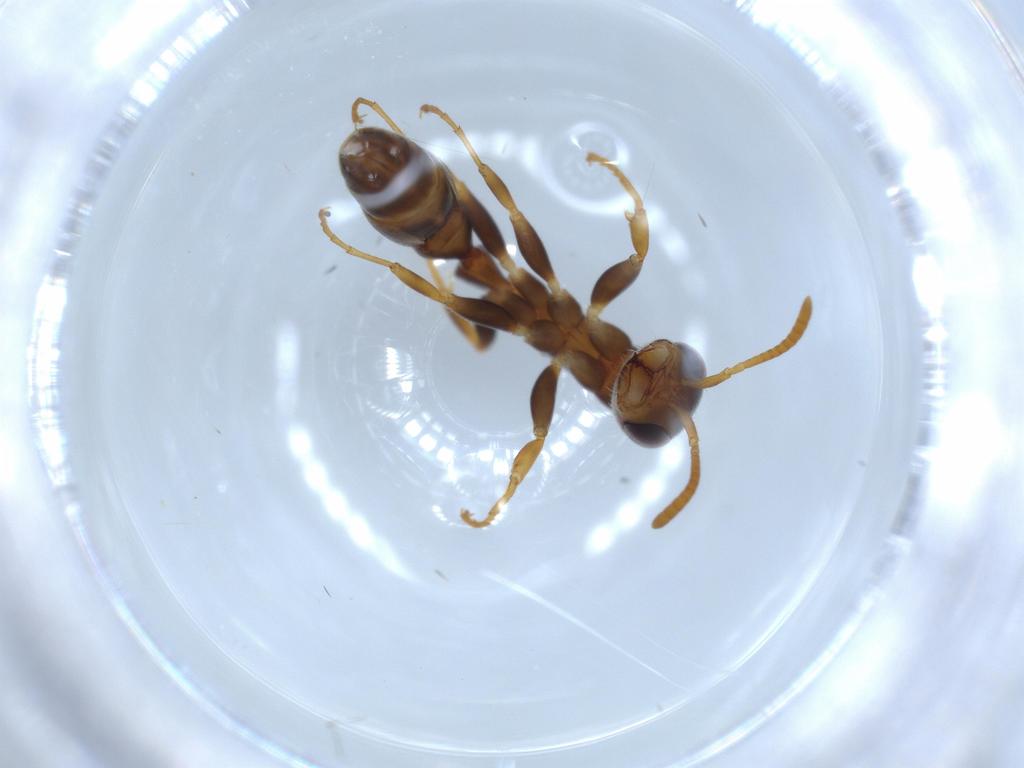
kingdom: Animalia
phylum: Arthropoda
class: Insecta
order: Hymenoptera
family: Formicidae
